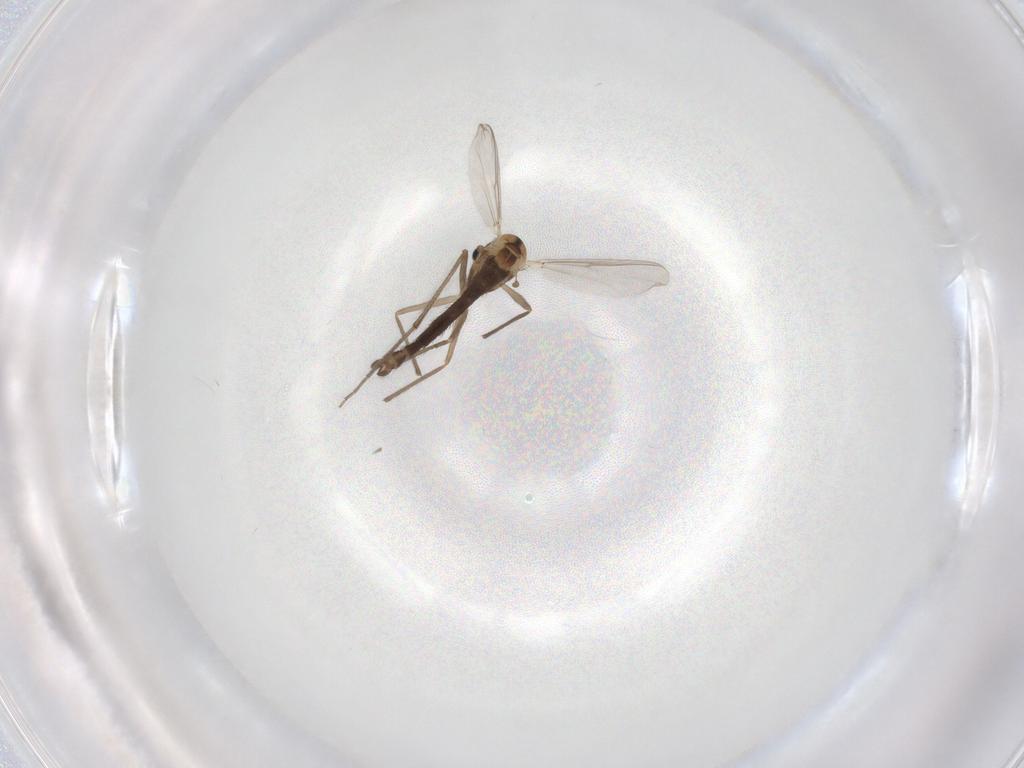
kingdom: Animalia
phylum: Arthropoda
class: Insecta
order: Diptera
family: Chironomidae
